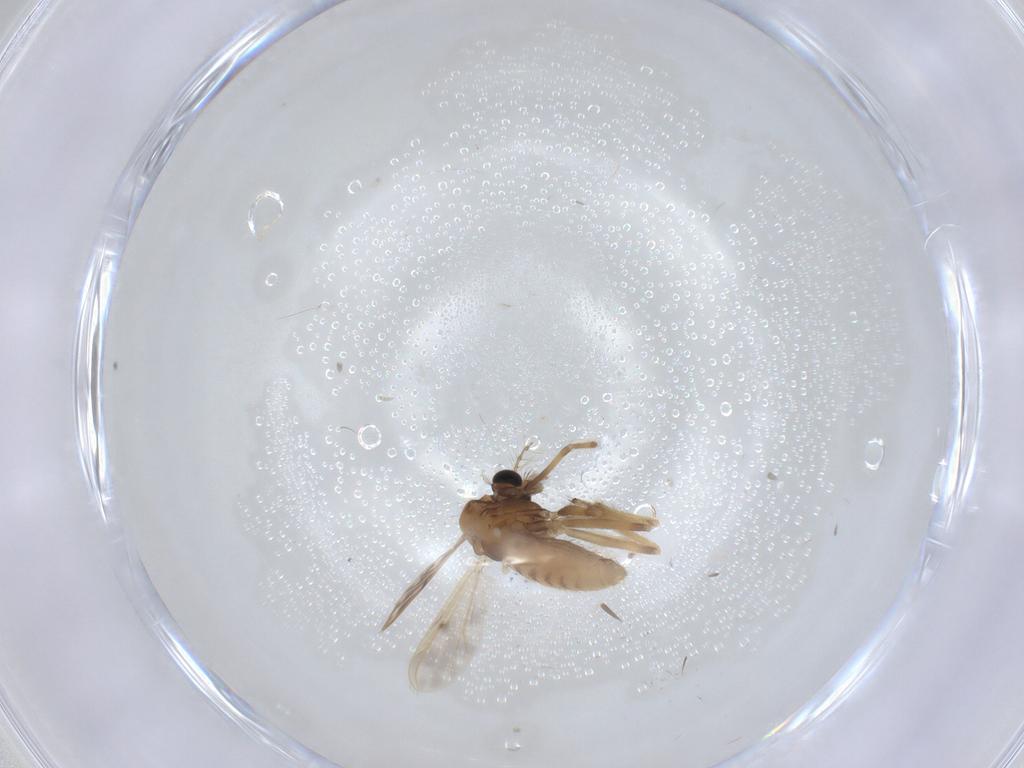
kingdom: Animalia
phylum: Arthropoda
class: Insecta
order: Diptera
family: Chironomidae
